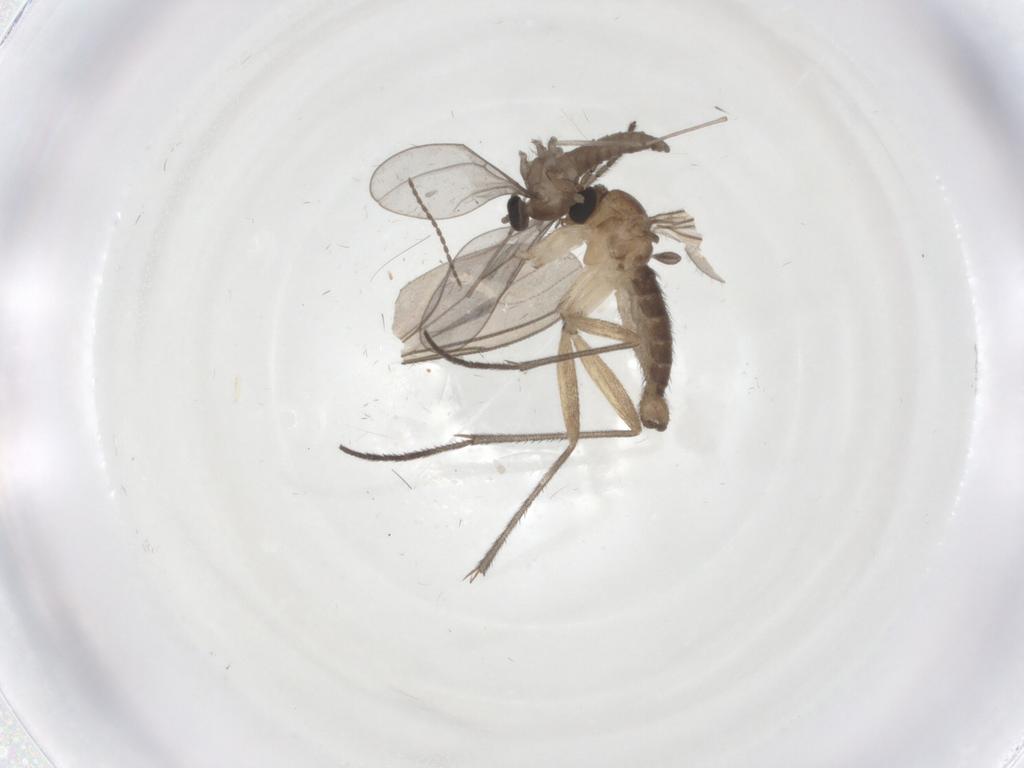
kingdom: Animalia
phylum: Arthropoda
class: Insecta
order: Diptera
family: Cecidomyiidae
